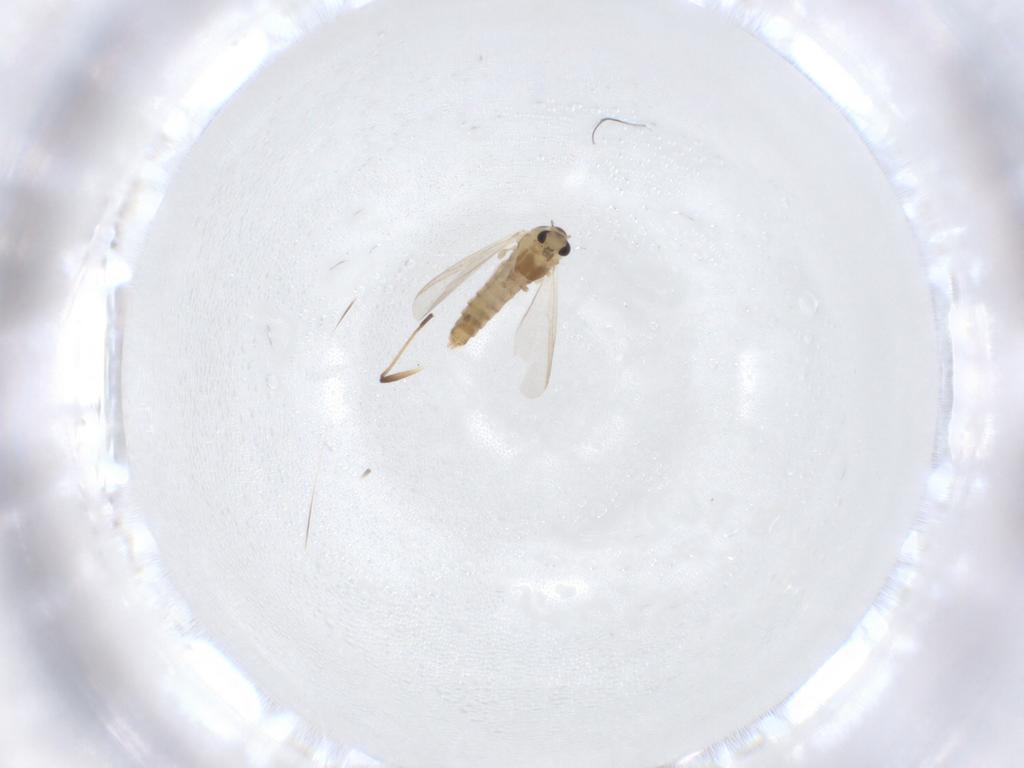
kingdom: Animalia
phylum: Arthropoda
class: Insecta
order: Diptera
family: Chironomidae
